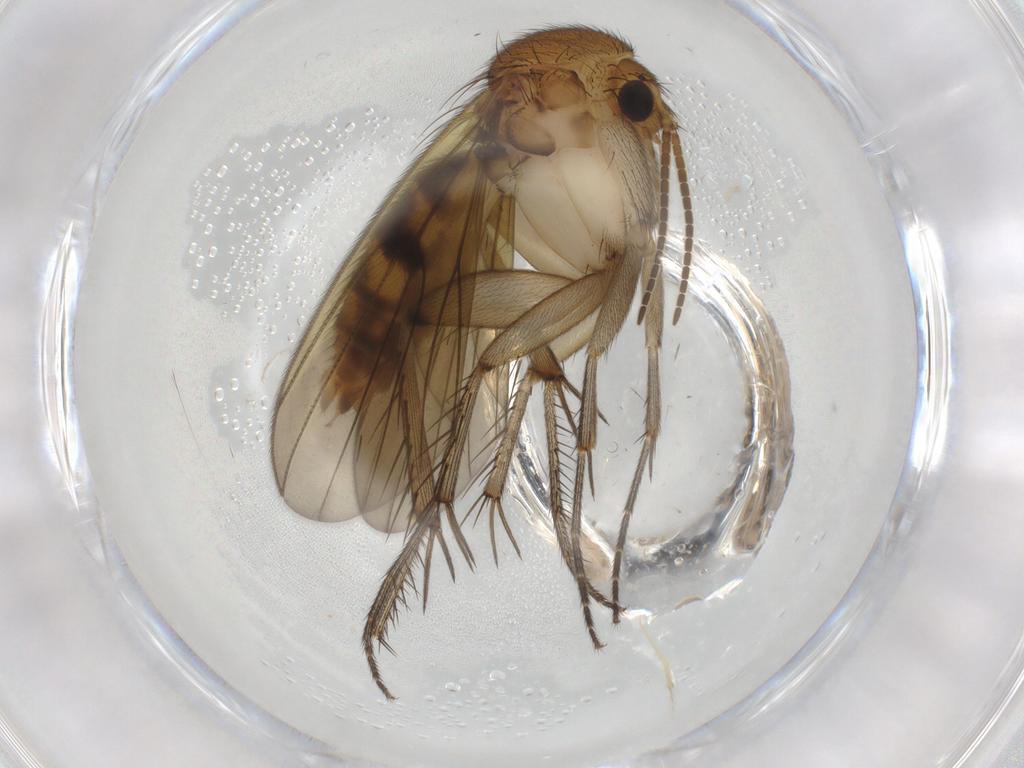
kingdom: Animalia
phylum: Arthropoda
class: Insecta
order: Diptera
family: Mycetophilidae
